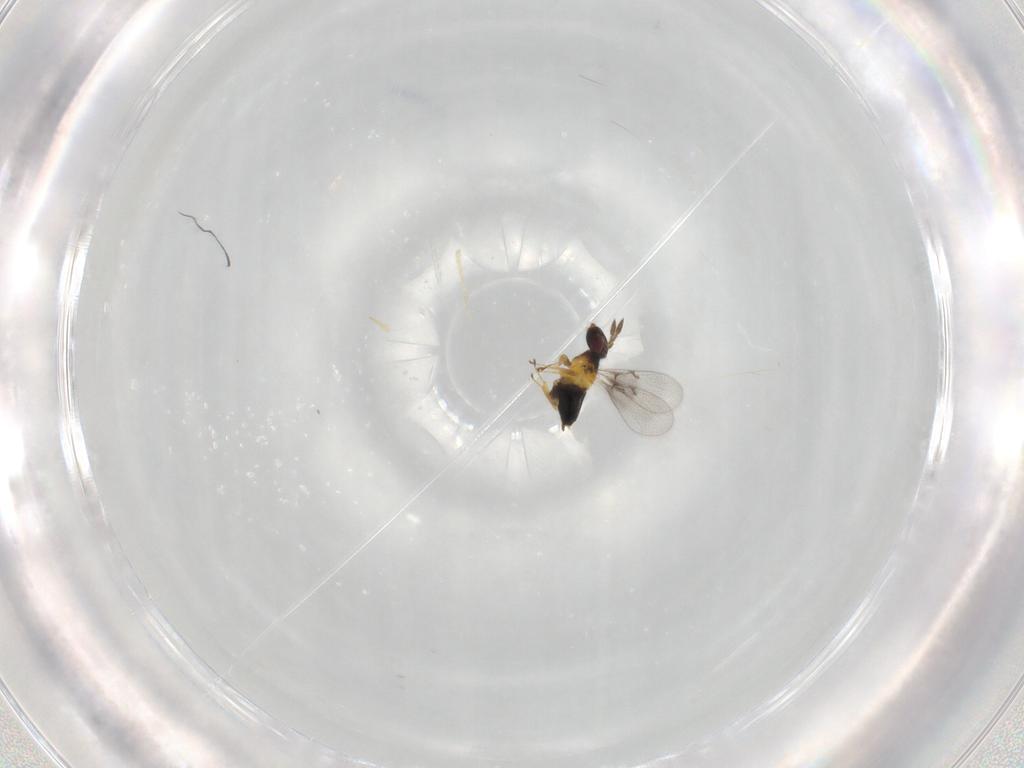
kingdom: Animalia
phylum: Arthropoda
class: Insecta
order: Hymenoptera
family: Trichogrammatidae
